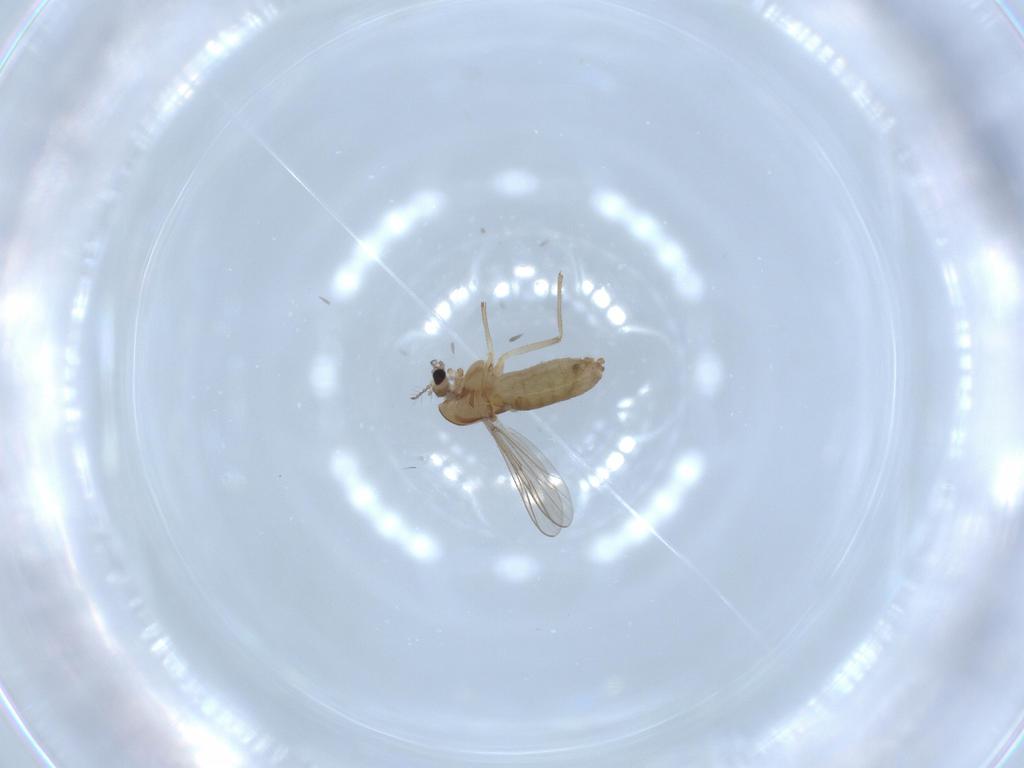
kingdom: Animalia
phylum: Arthropoda
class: Insecta
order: Diptera
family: Chironomidae
